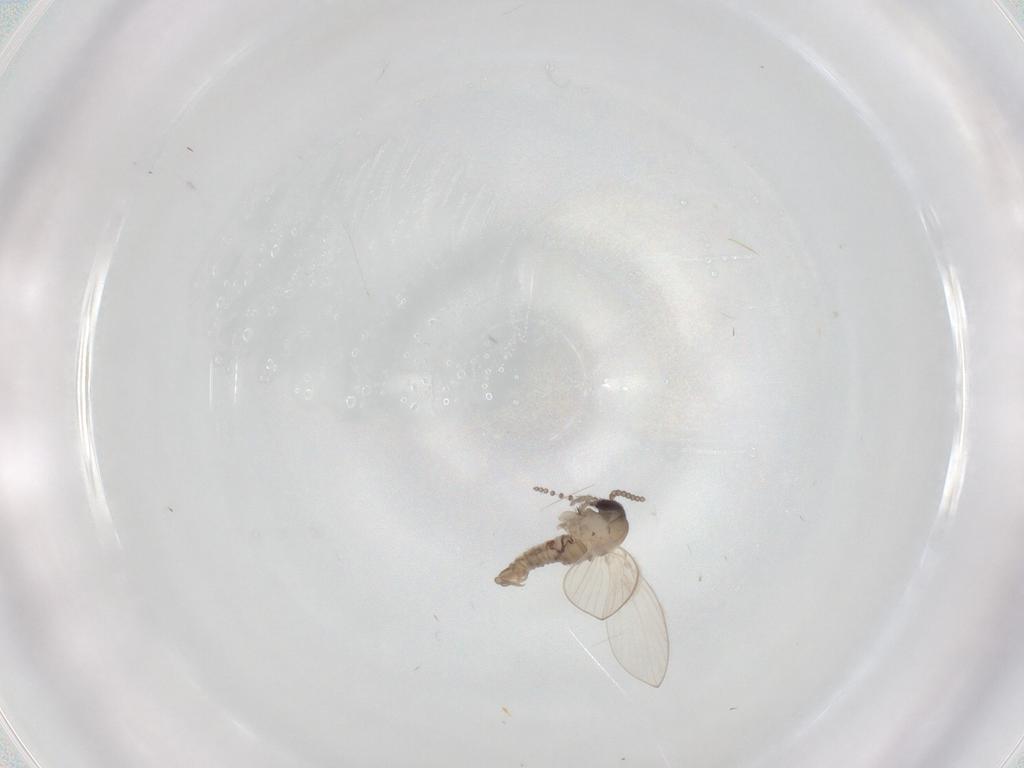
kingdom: Animalia
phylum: Arthropoda
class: Insecta
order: Diptera
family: Psychodidae
